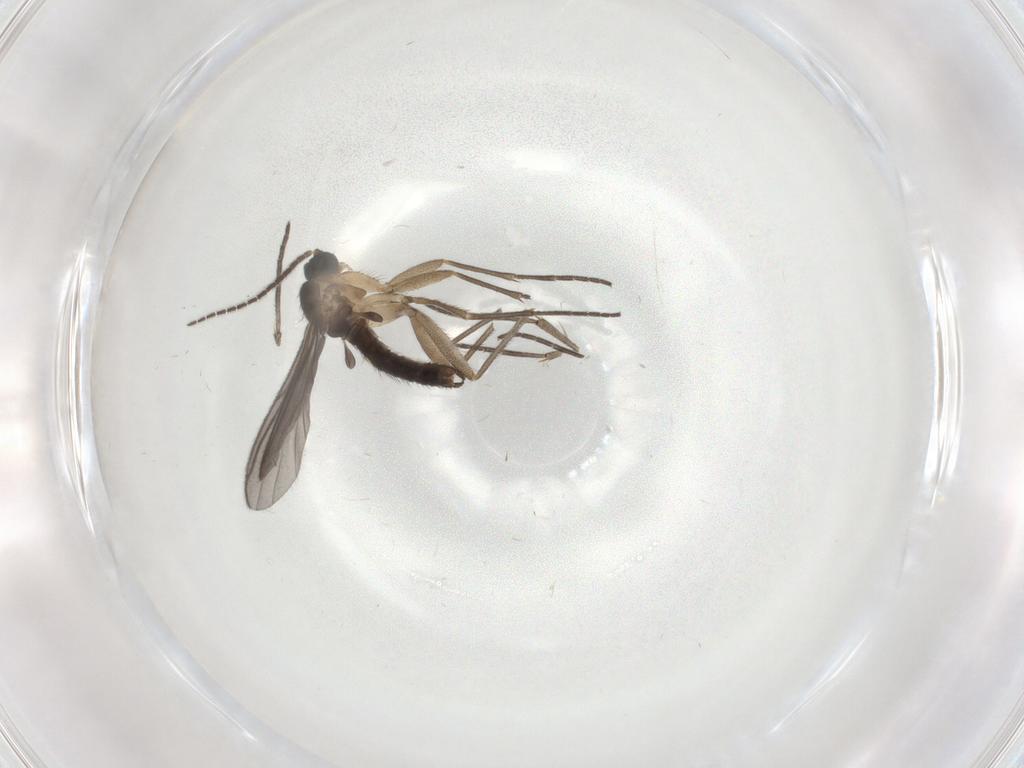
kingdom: Animalia
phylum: Arthropoda
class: Insecta
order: Diptera
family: Sciaridae
